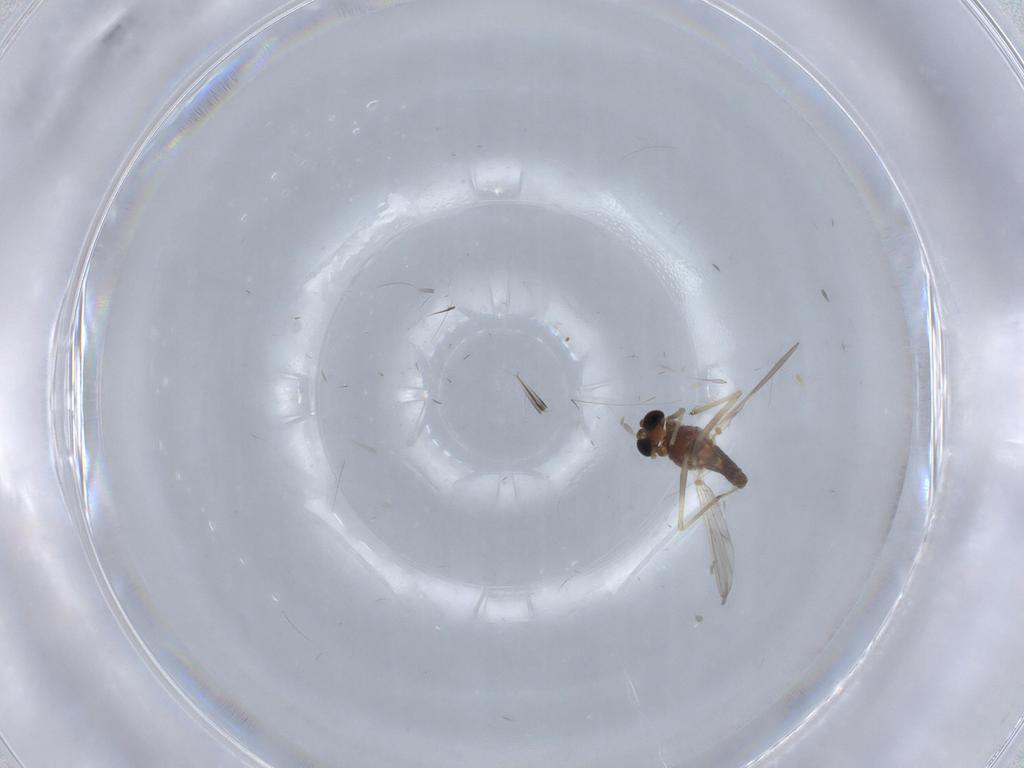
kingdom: Animalia
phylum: Arthropoda
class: Insecta
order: Diptera
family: Chironomidae
